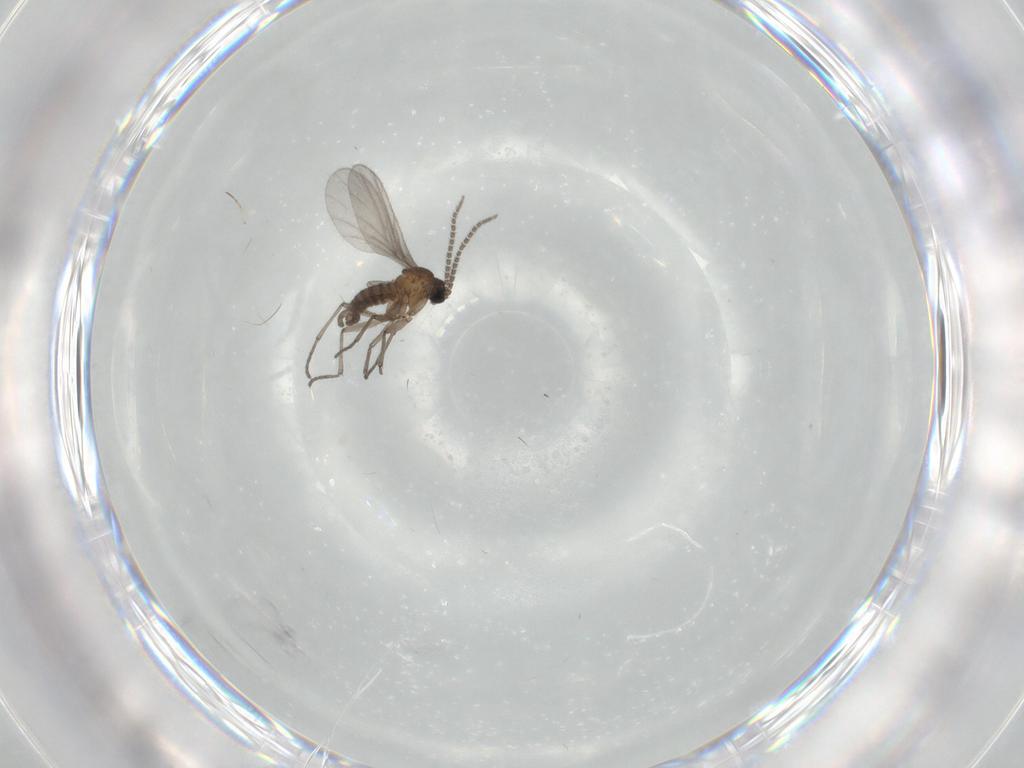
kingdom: Animalia
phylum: Arthropoda
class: Insecta
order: Diptera
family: Sciaridae
